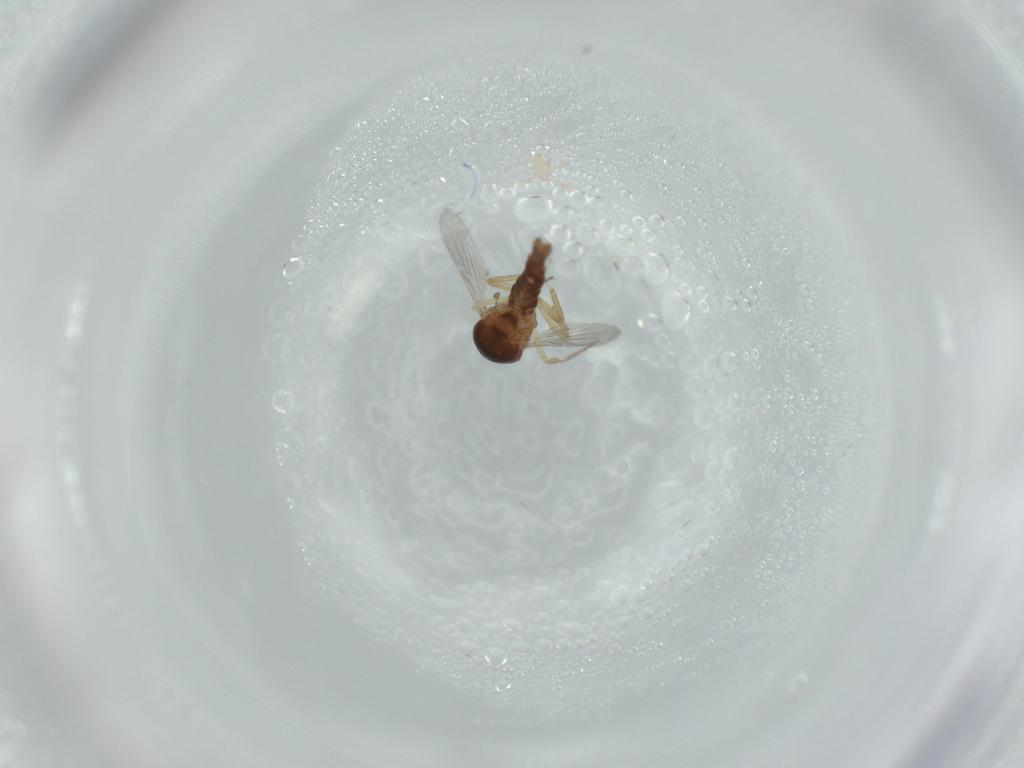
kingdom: Animalia
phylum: Arthropoda
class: Insecta
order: Diptera
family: Ceratopogonidae
